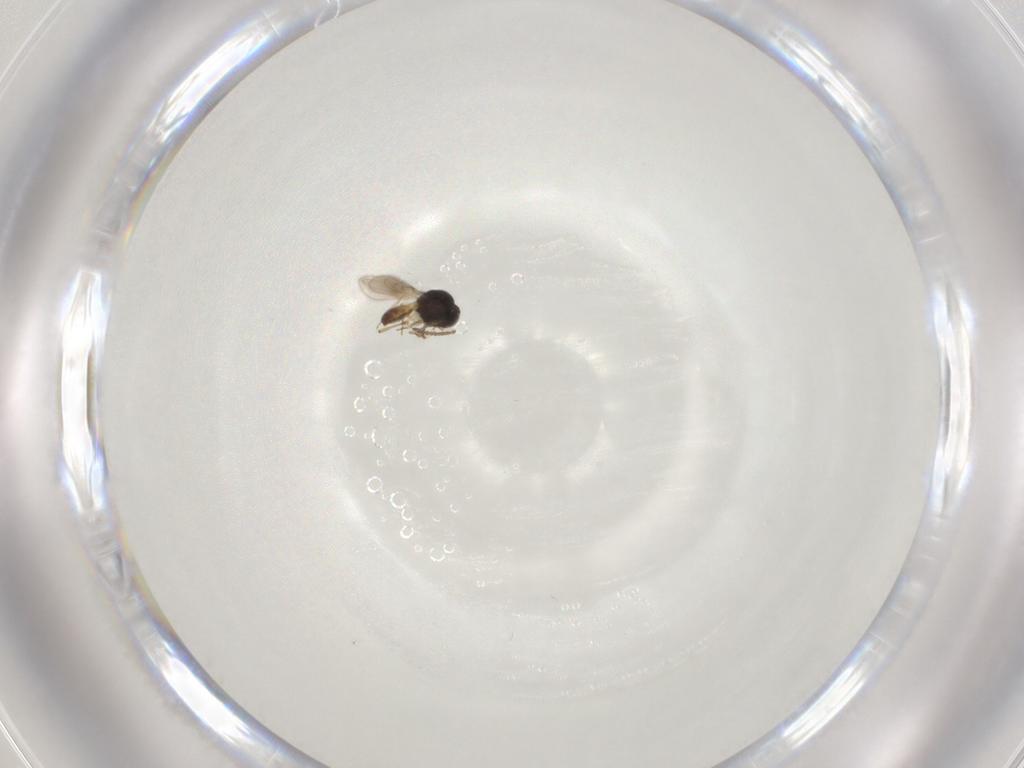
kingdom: Animalia
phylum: Arthropoda
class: Insecta
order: Hymenoptera
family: Scelionidae
